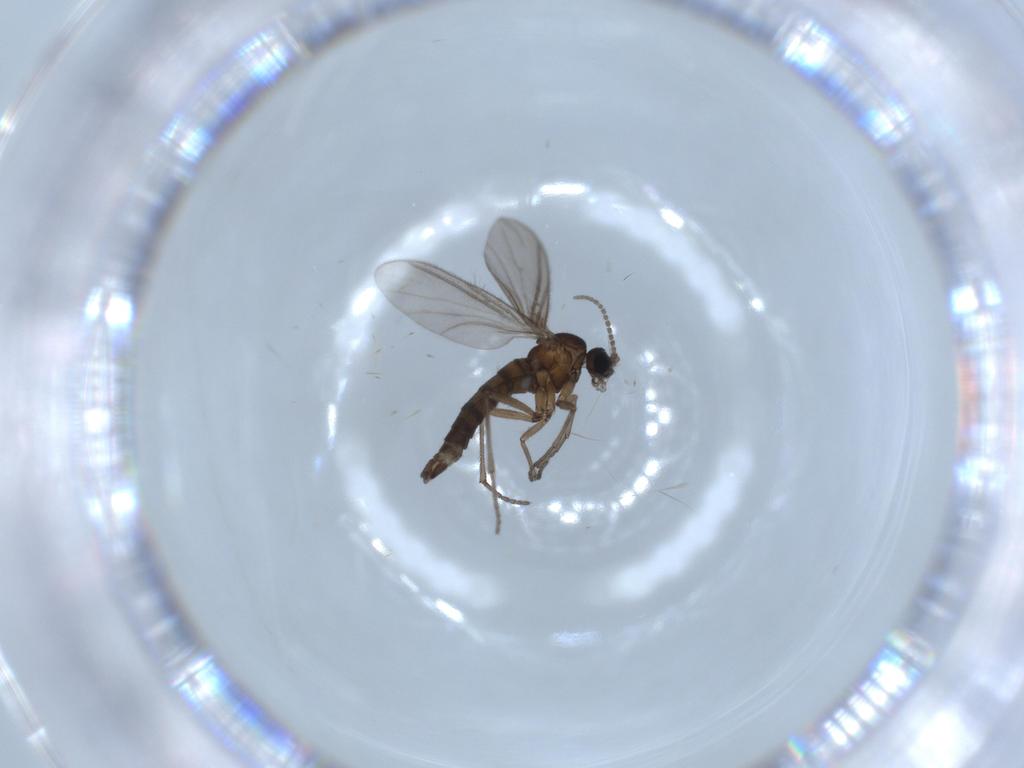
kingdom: Animalia
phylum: Arthropoda
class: Insecta
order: Diptera
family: Sciaridae
